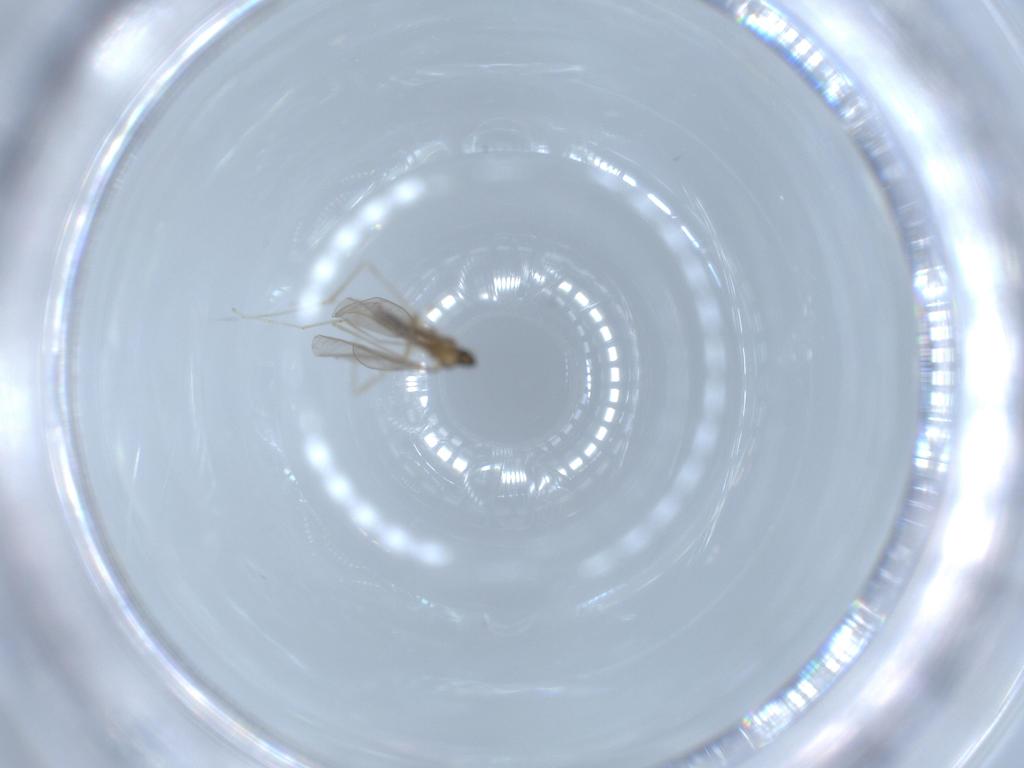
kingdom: Animalia
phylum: Arthropoda
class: Insecta
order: Diptera
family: Cecidomyiidae
